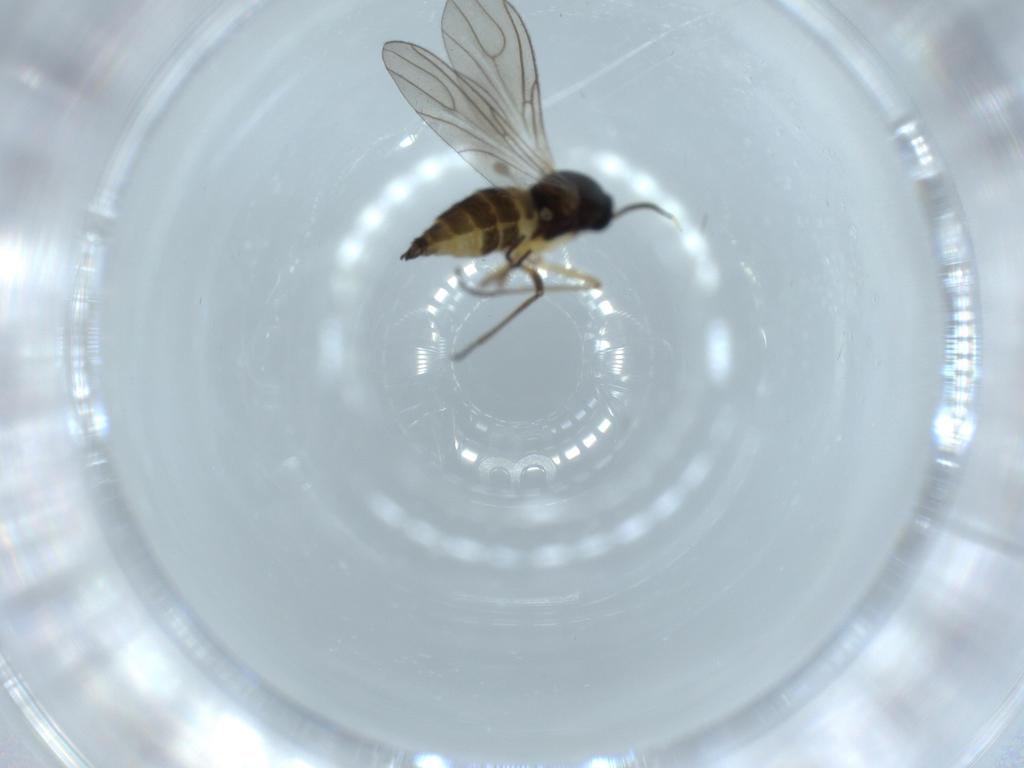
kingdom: Animalia
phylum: Arthropoda
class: Insecta
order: Diptera
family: Sciaridae
